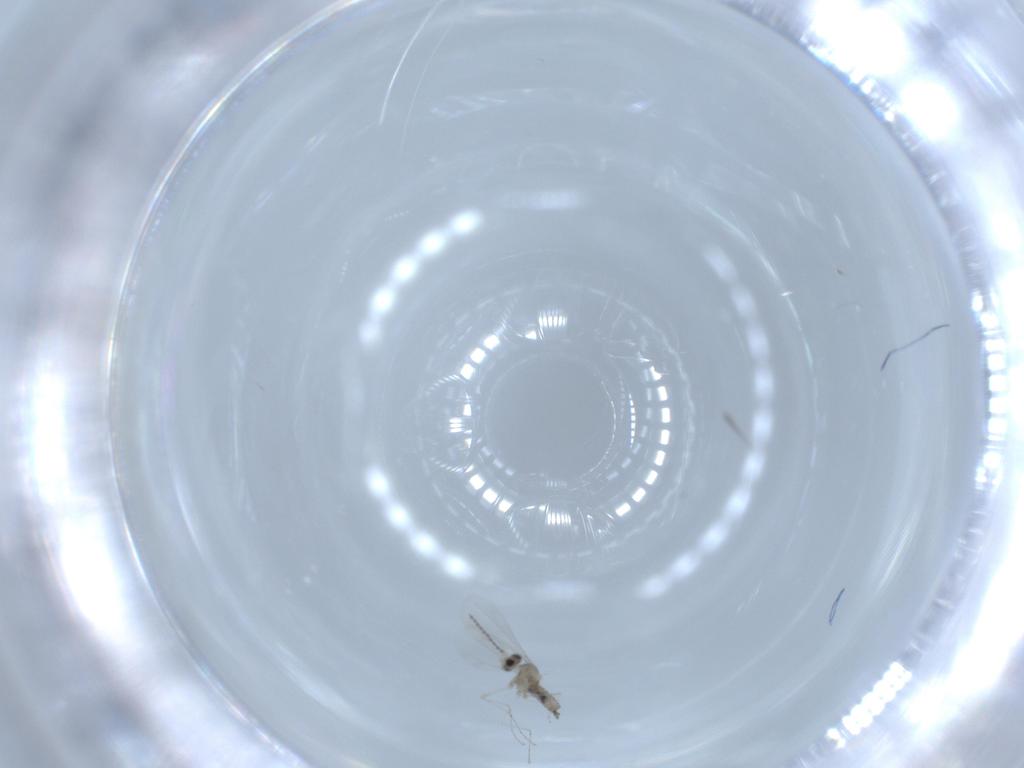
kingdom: Animalia
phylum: Arthropoda
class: Insecta
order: Diptera
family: Cecidomyiidae
